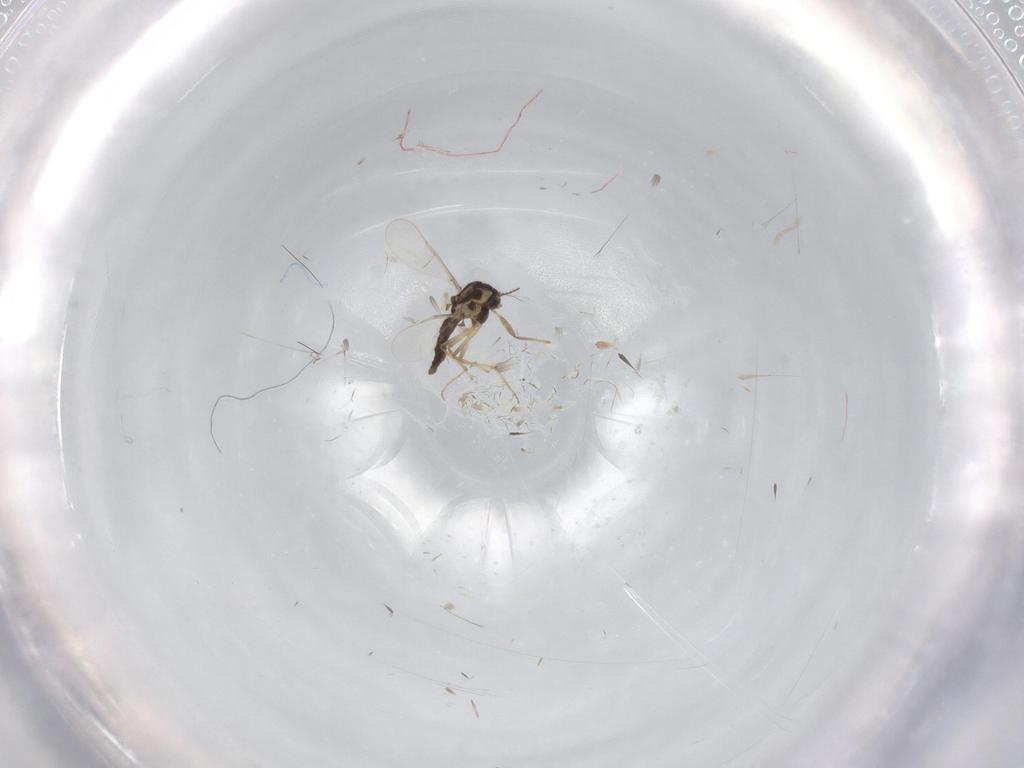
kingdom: Animalia
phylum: Arthropoda
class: Insecta
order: Diptera
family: Chironomidae
